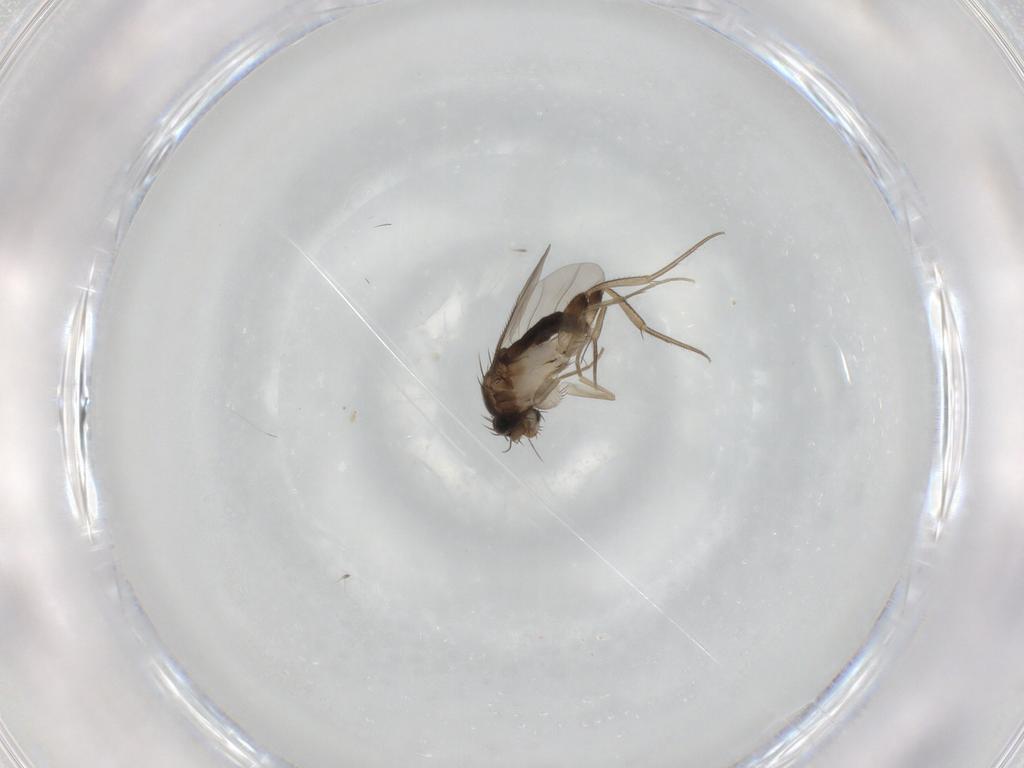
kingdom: Animalia
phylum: Arthropoda
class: Insecta
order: Diptera
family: Phoridae
